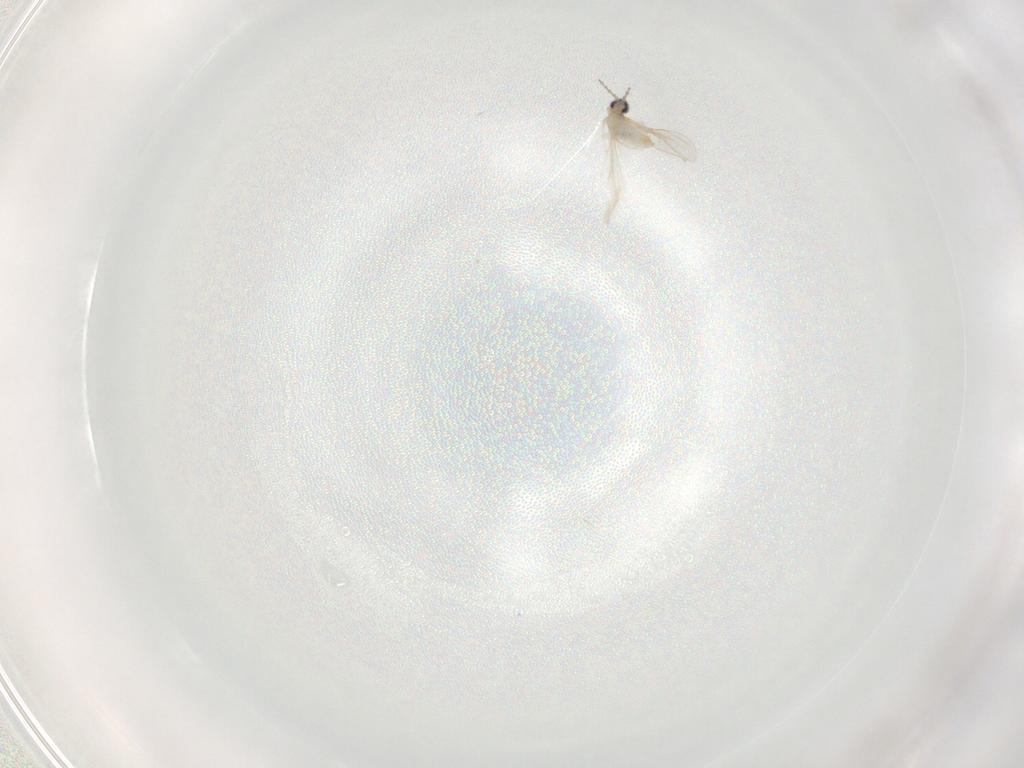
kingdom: Animalia
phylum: Arthropoda
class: Insecta
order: Diptera
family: Cecidomyiidae
